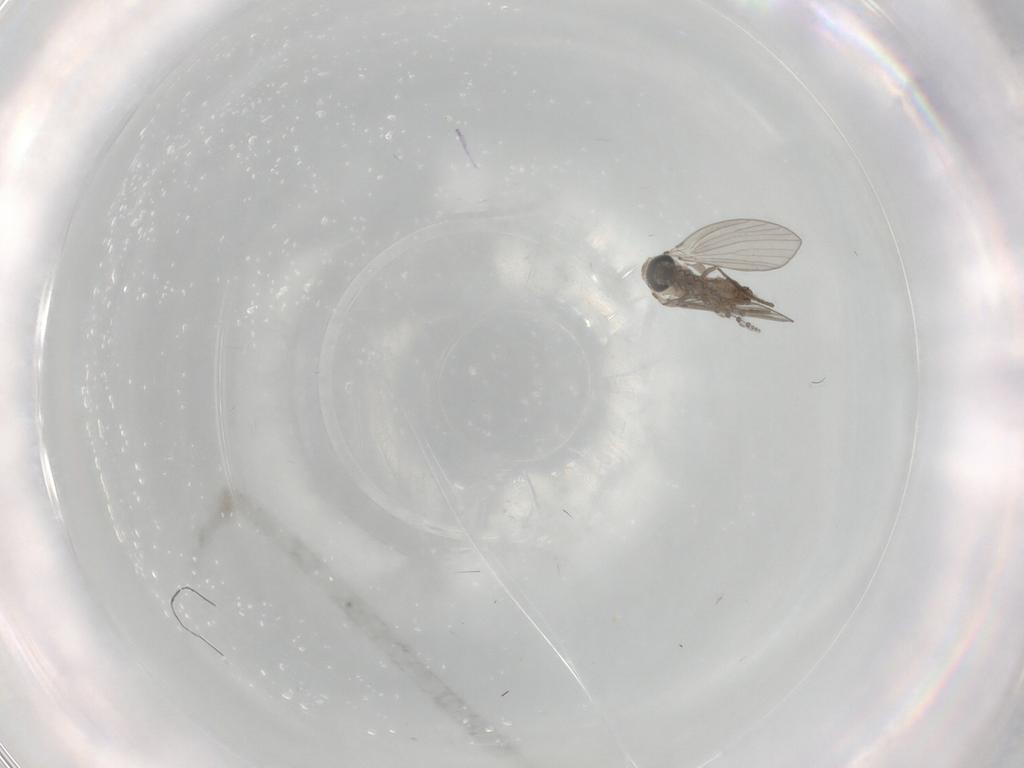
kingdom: Animalia
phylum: Arthropoda
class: Insecta
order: Diptera
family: Psychodidae
